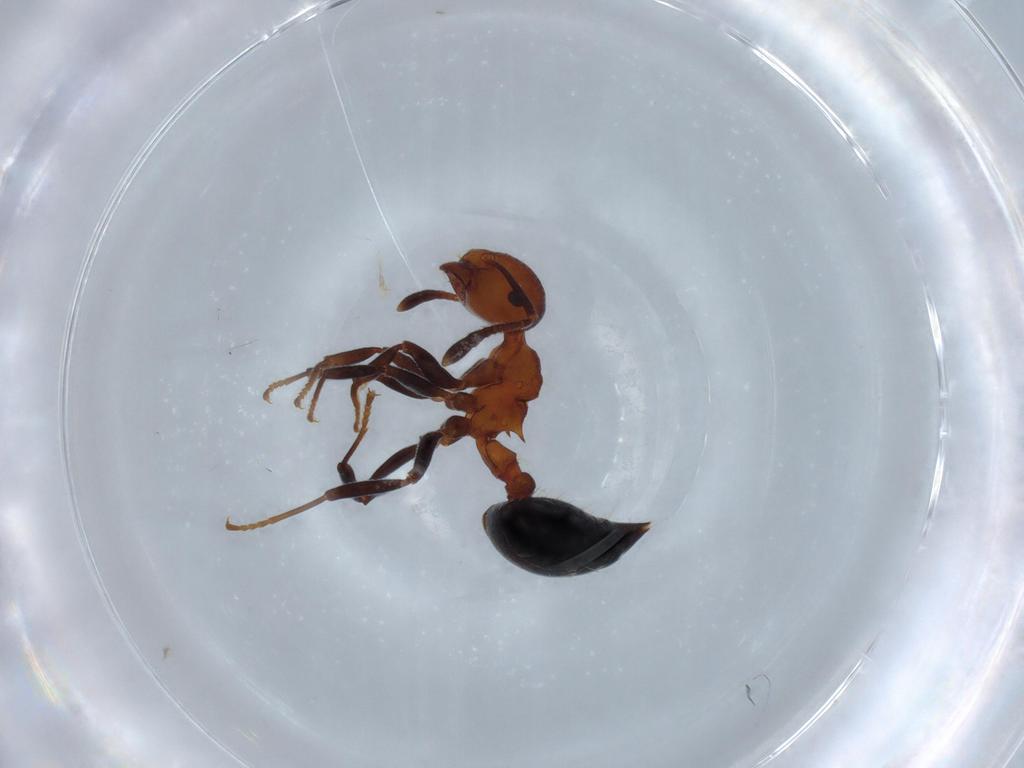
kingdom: Animalia
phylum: Arthropoda
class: Insecta
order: Hymenoptera
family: Formicidae
